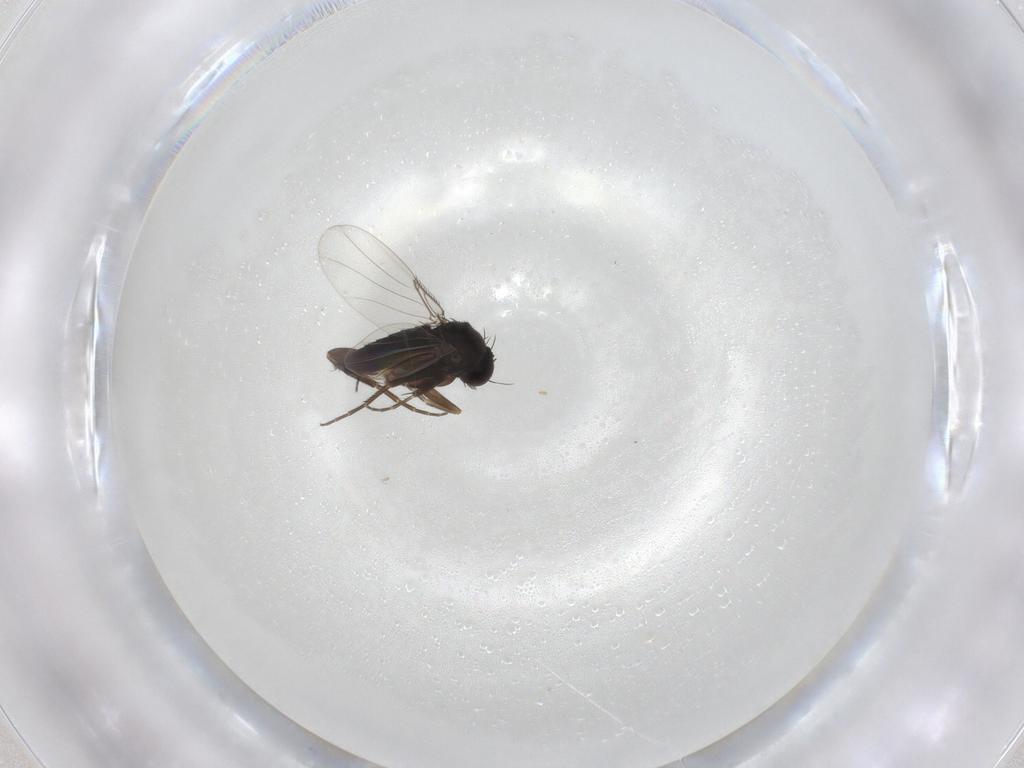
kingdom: Animalia
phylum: Arthropoda
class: Insecta
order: Diptera
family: Phoridae
